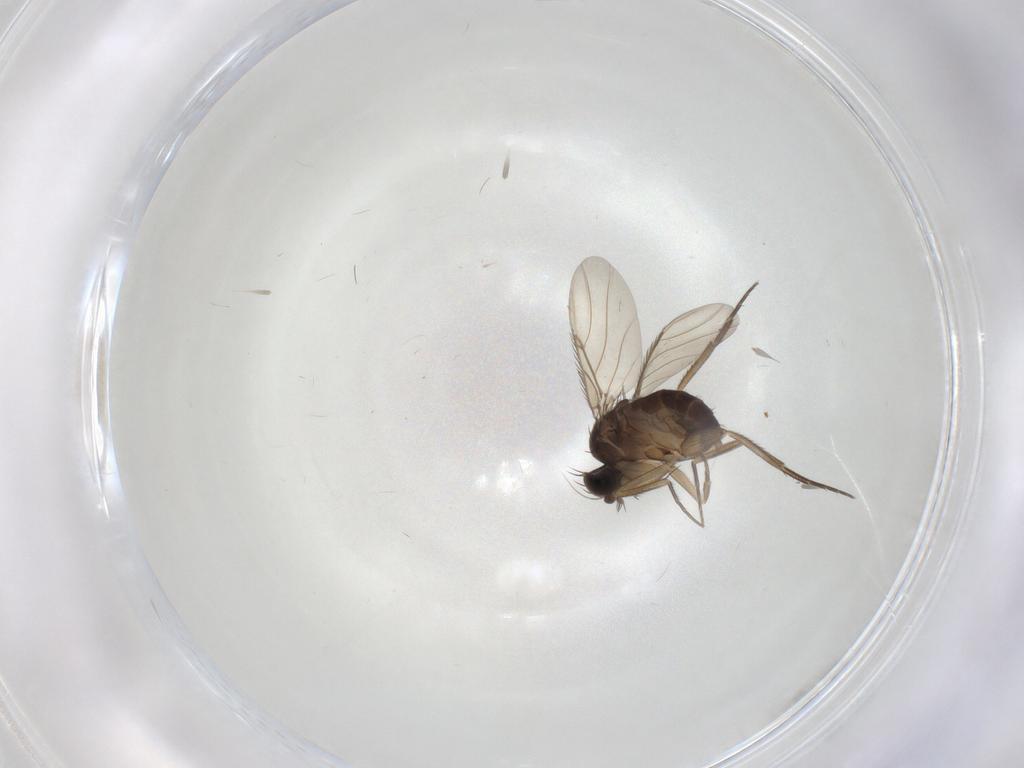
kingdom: Animalia
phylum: Arthropoda
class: Insecta
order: Diptera
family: Phoridae
